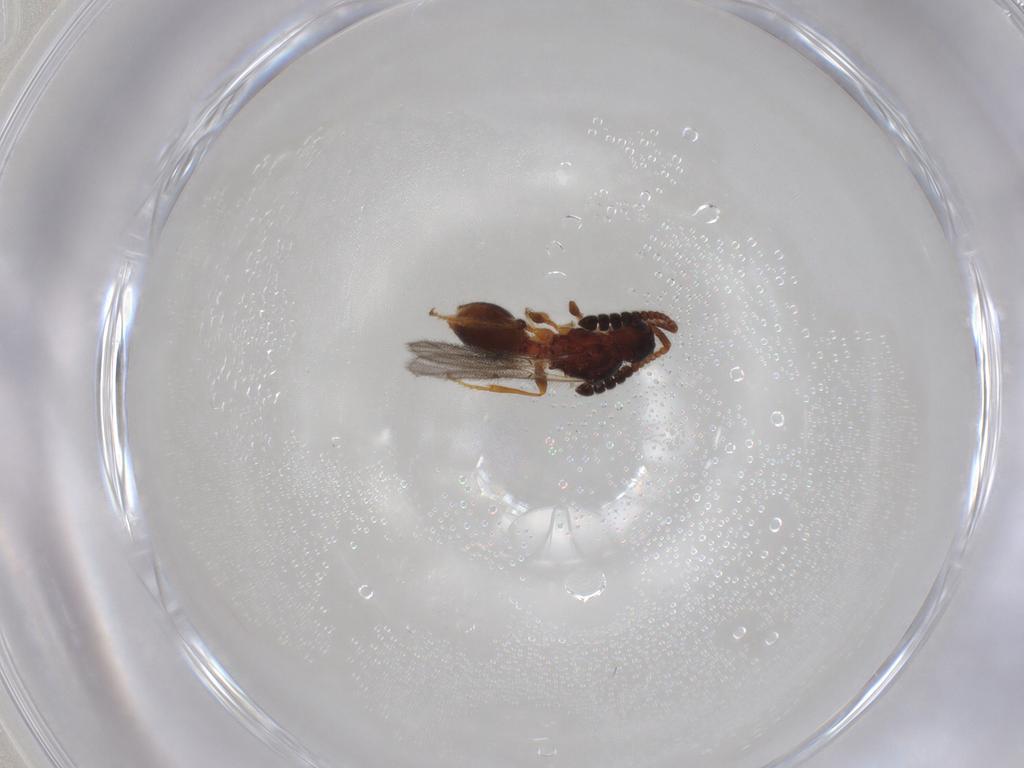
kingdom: Animalia
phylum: Arthropoda
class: Insecta
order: Hymenoptera
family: Diapriidae
